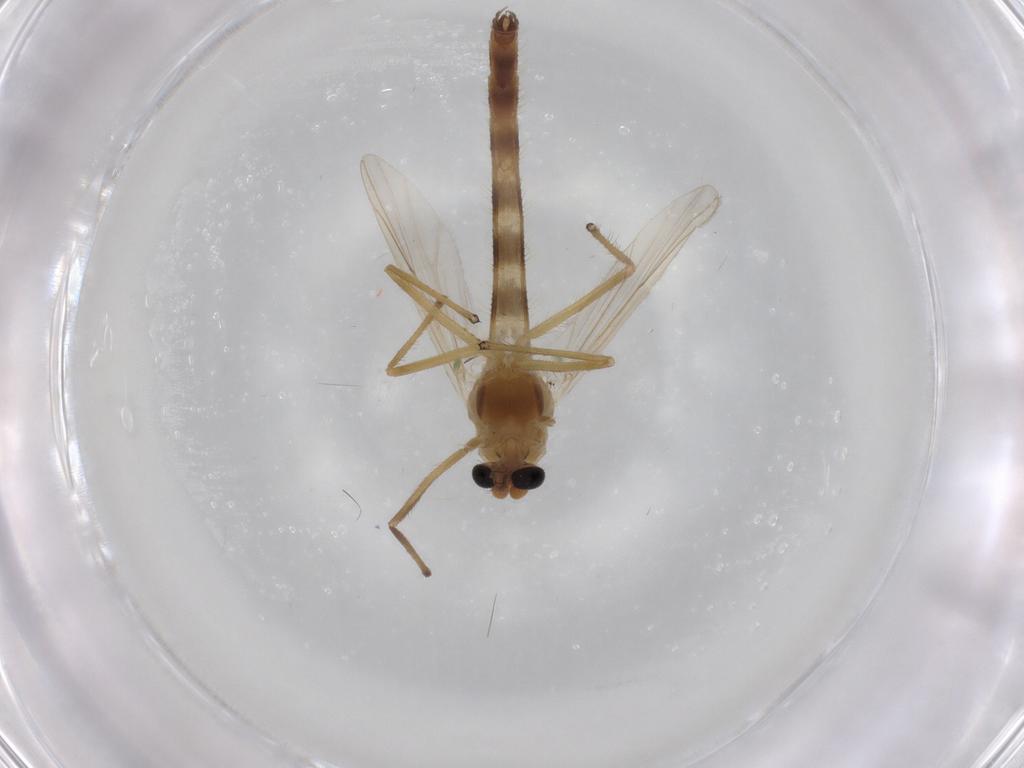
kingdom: Animalia
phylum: Arthropoda
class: Insecta
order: Diptera
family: Chironomidae
